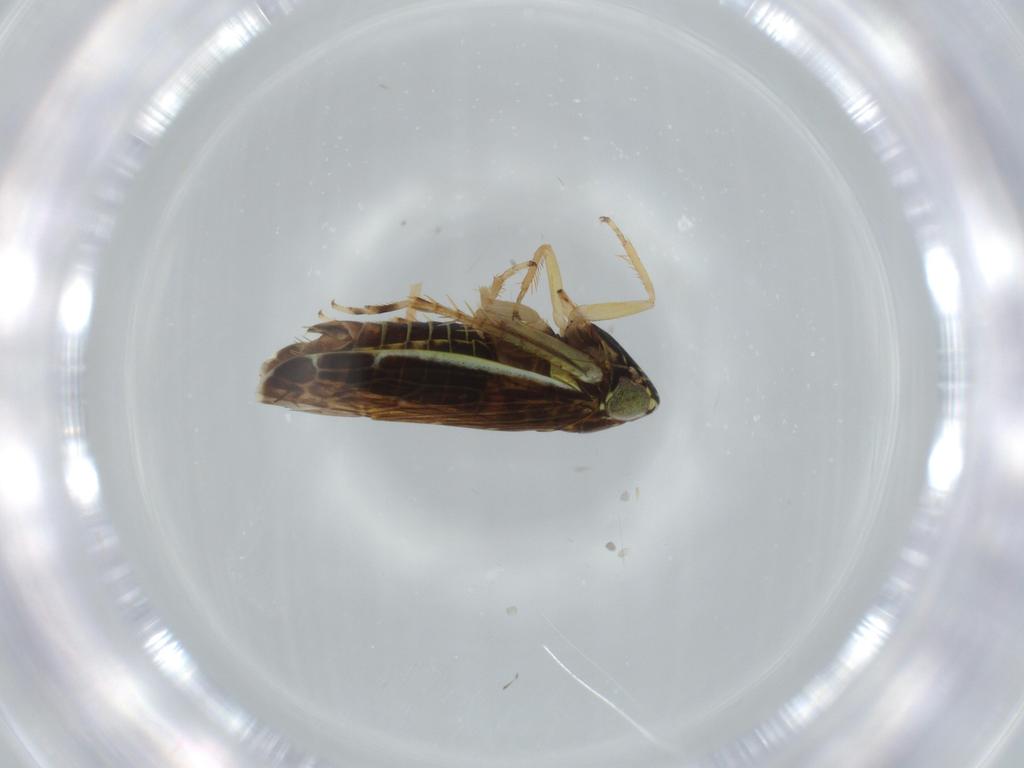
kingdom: Animalia
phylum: Arthropoda
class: Insecta
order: Hemiptera
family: Cicadellidae
